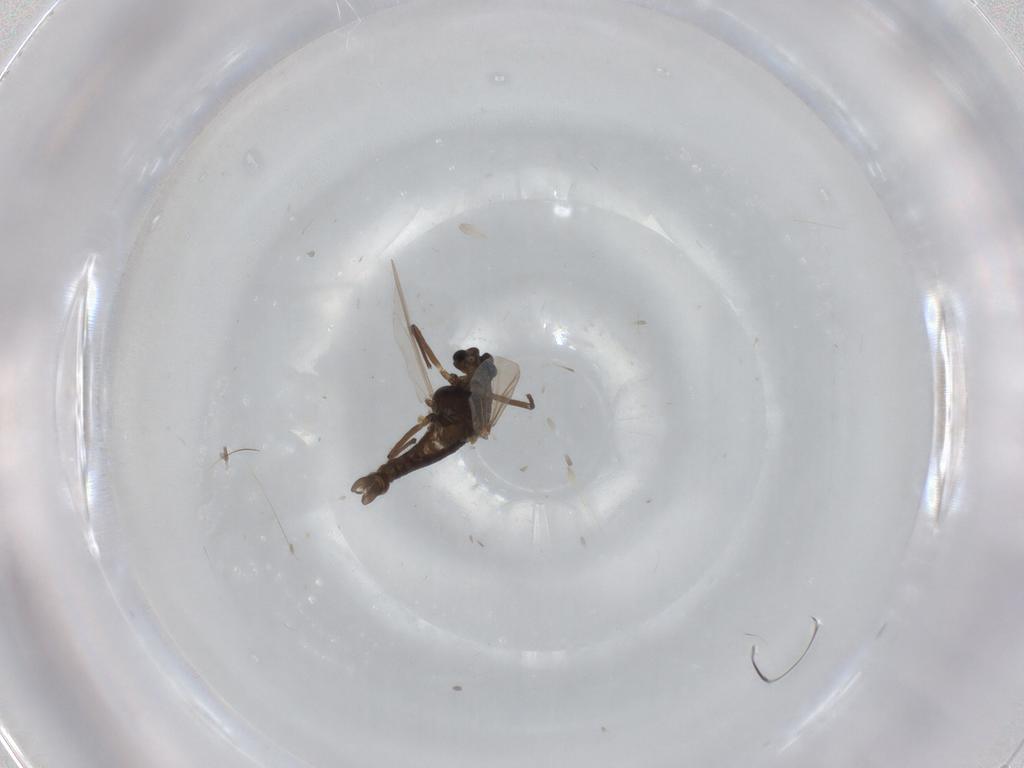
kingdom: Animalia
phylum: Arthropoda
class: Insecta
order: Diptera
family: Chironomidae
